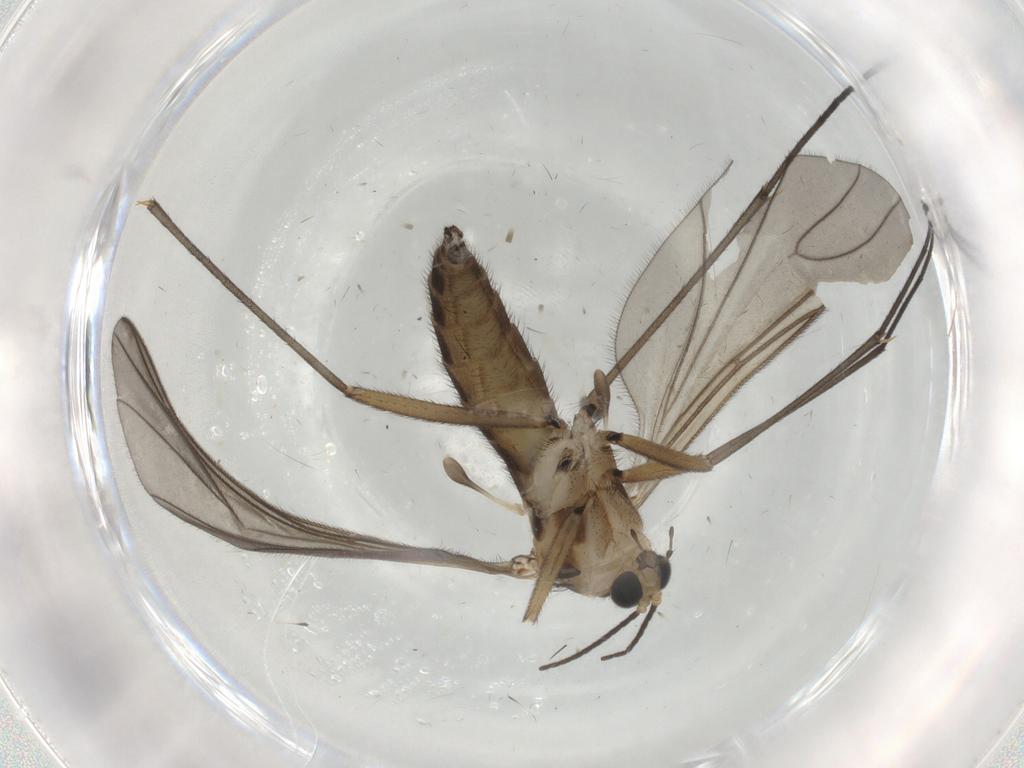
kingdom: Animalia
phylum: Arthropoda
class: Insecta
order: Diptera
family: Sciaridae
